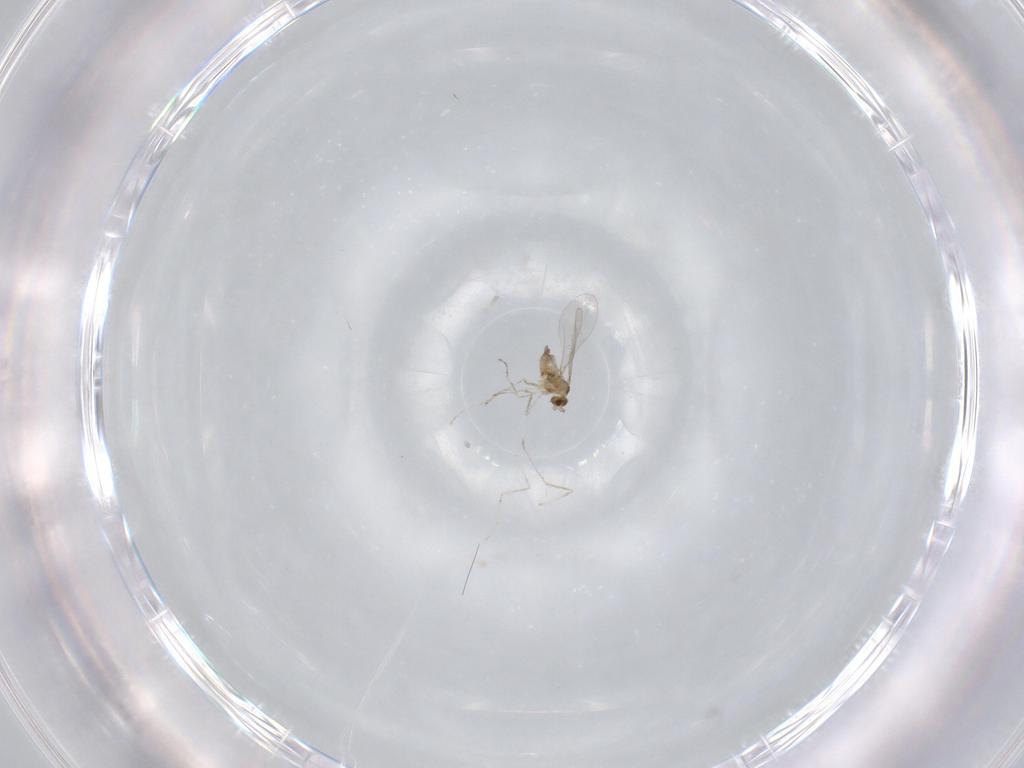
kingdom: Animalia
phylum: Arthropoda
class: Insecta
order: Diptera
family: Cecidomyiidae
